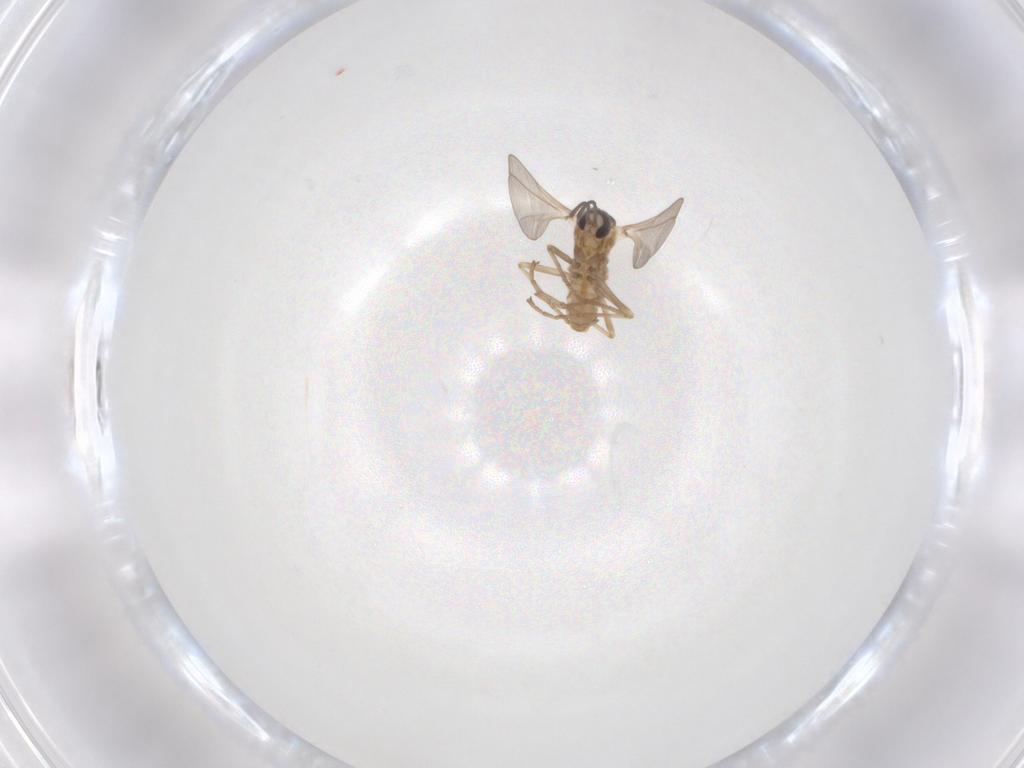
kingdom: Animalia
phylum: Arthropoda
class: Insecta
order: Diptera
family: Cecidomyiidae
